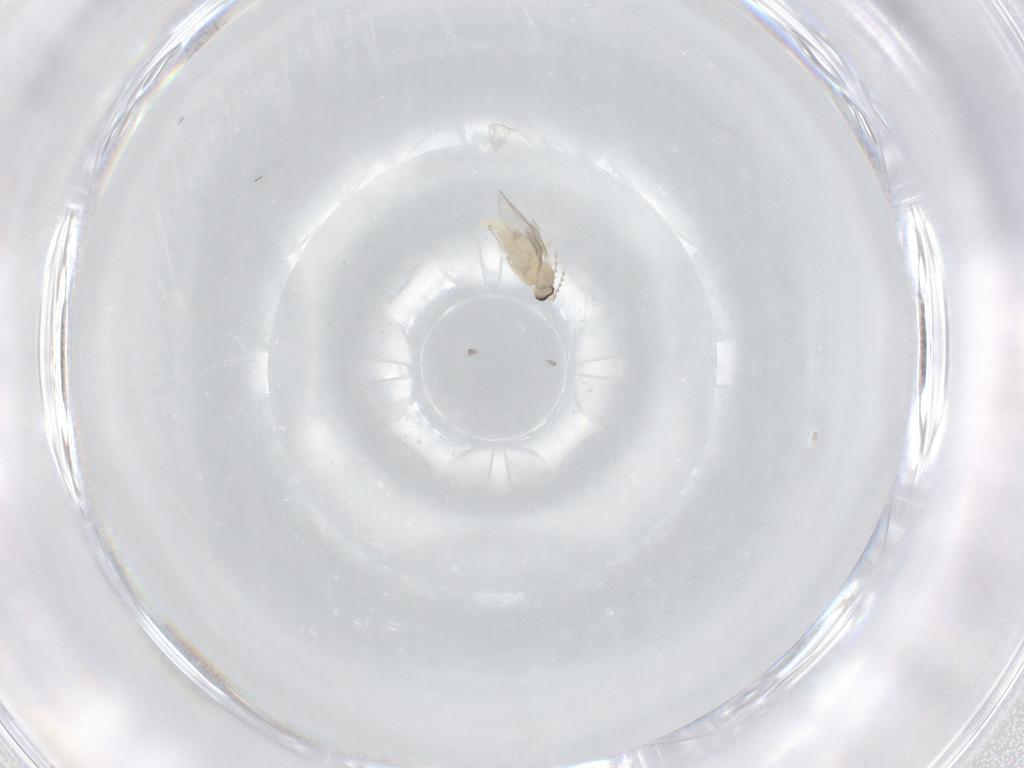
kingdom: Animalia
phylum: Arthropoda
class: Insecta
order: Diptera
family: Cecidomyiidae
